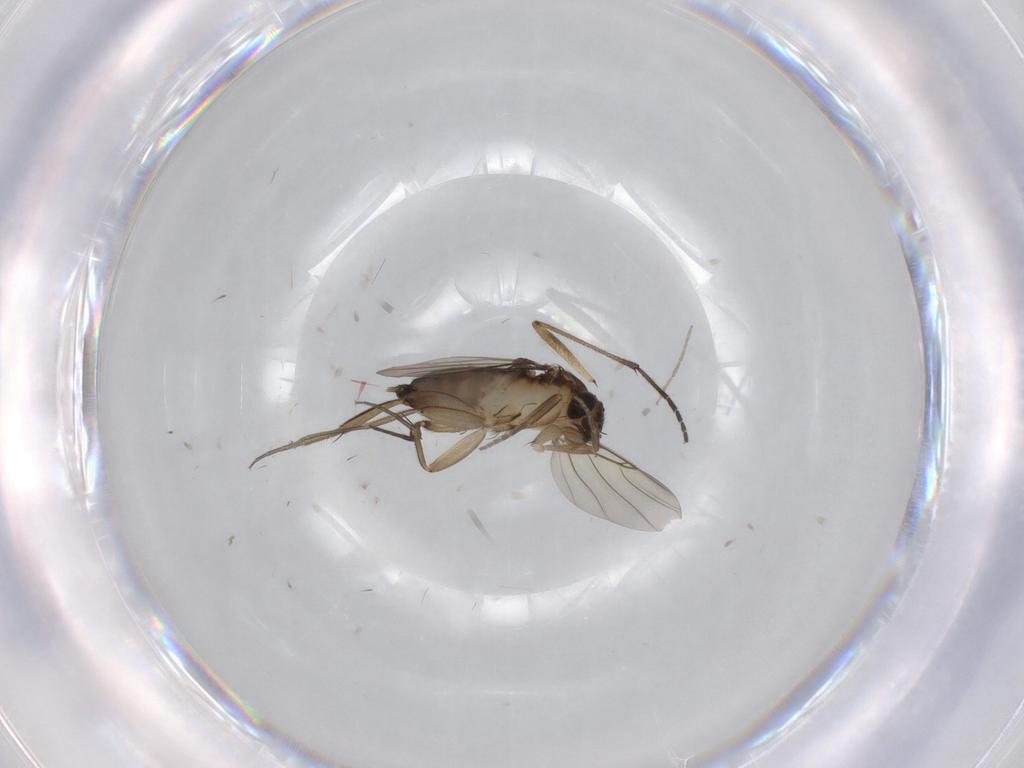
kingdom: Animalia
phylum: Arthropoda
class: Insecta
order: Diptera
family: Phoridae
